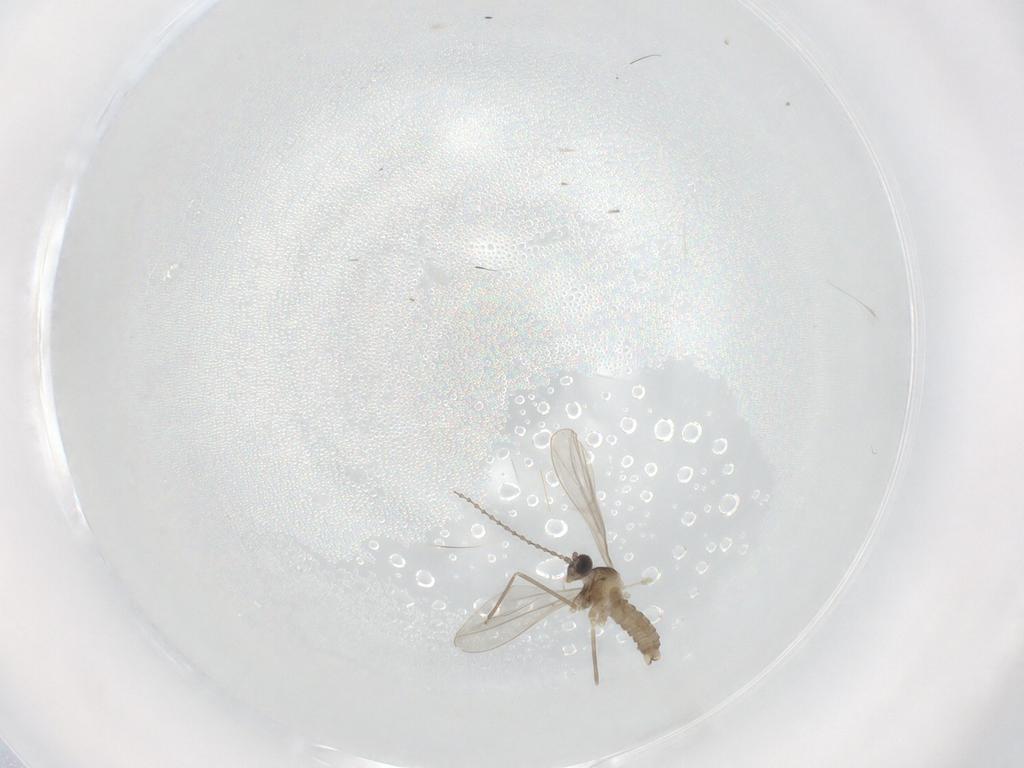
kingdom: Animalia
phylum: Arthropoda
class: Insecta
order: Diptera
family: Cecidomyiidae
